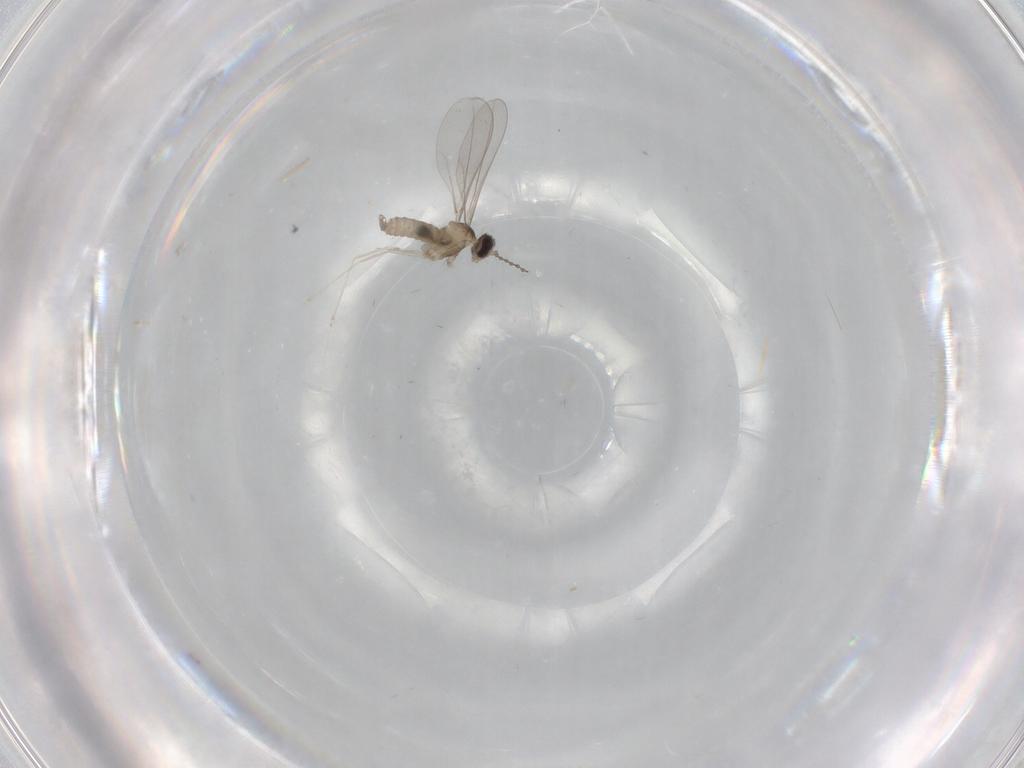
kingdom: Animalia
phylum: Arthropoda
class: Insecta
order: Diptera
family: Cecidomyiidae
